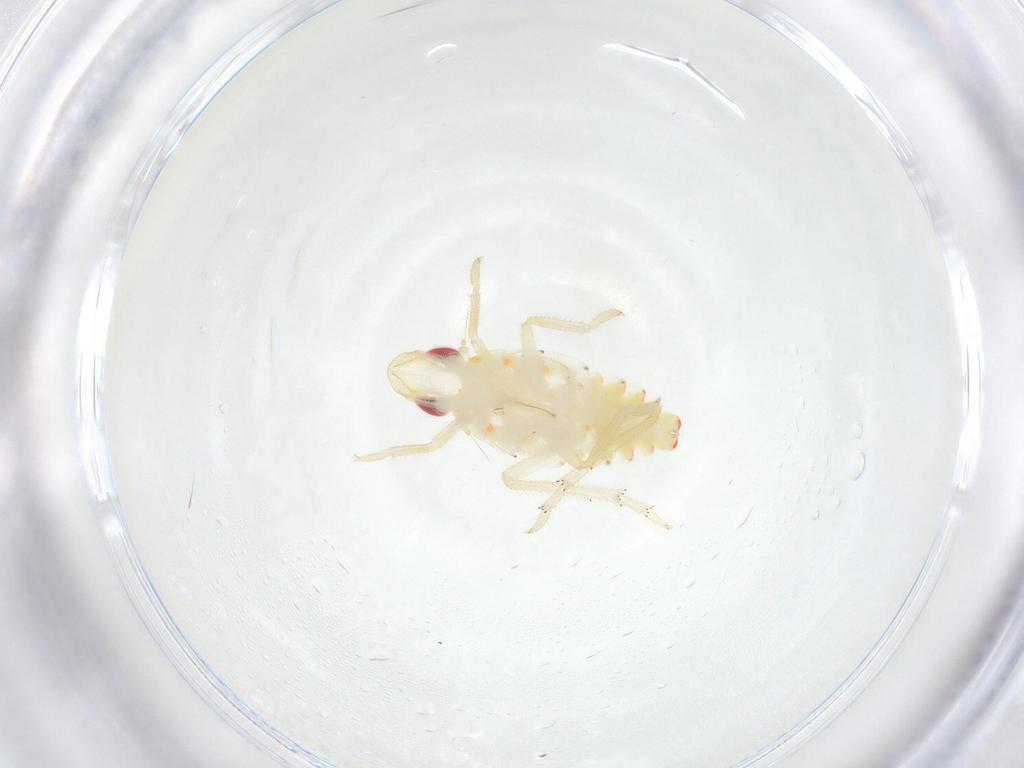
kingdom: Animalia
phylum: Arthropoda
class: Insecta
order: Hemiptera
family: Tropiduchidae
